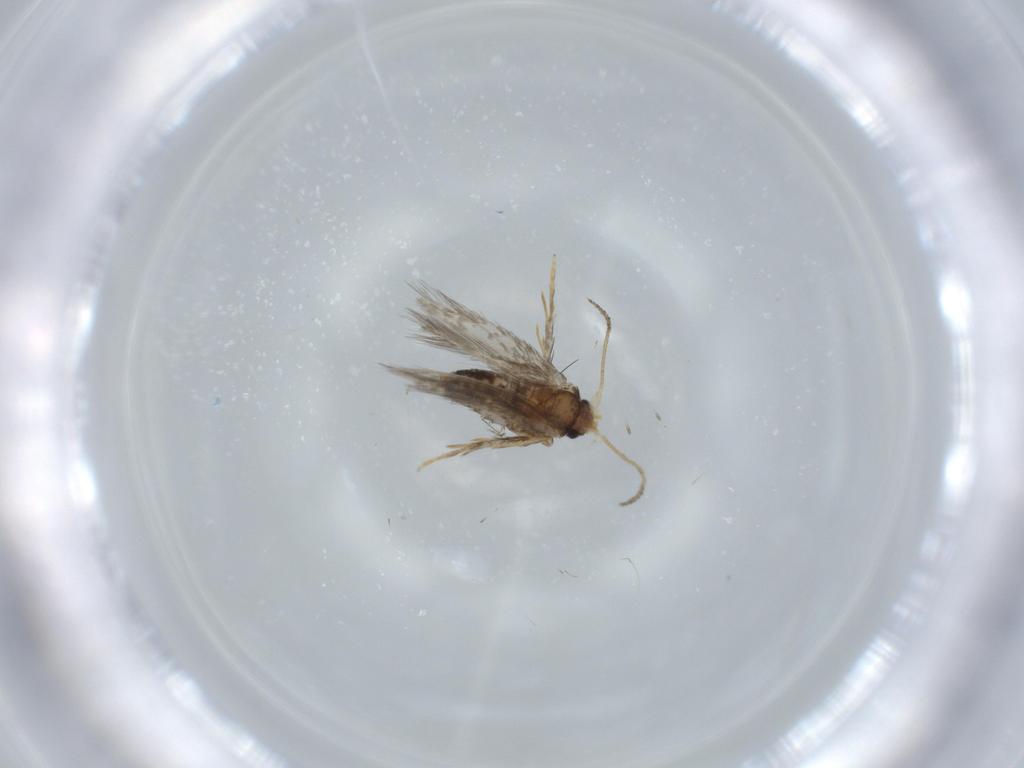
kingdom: Animalia
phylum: Arthropoda
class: Insecta
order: Lepidoptera
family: Nepticulidae
